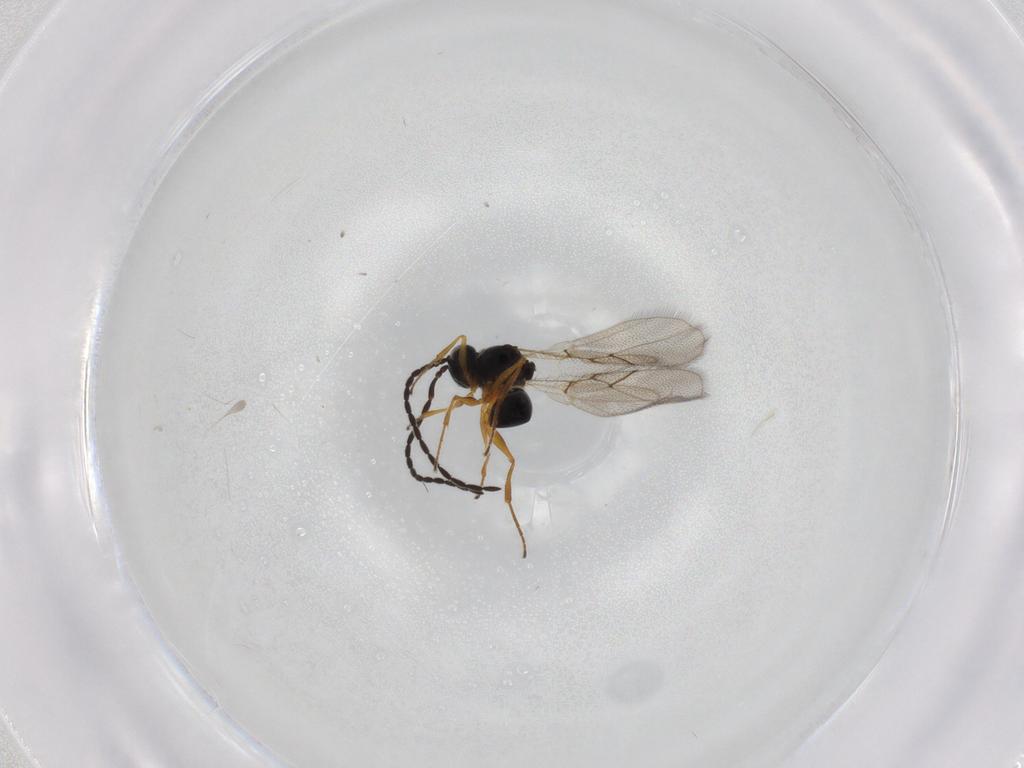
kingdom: Animalia
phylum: Arthropoda
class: Insecta
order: Hymenoptera
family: Figitidae
